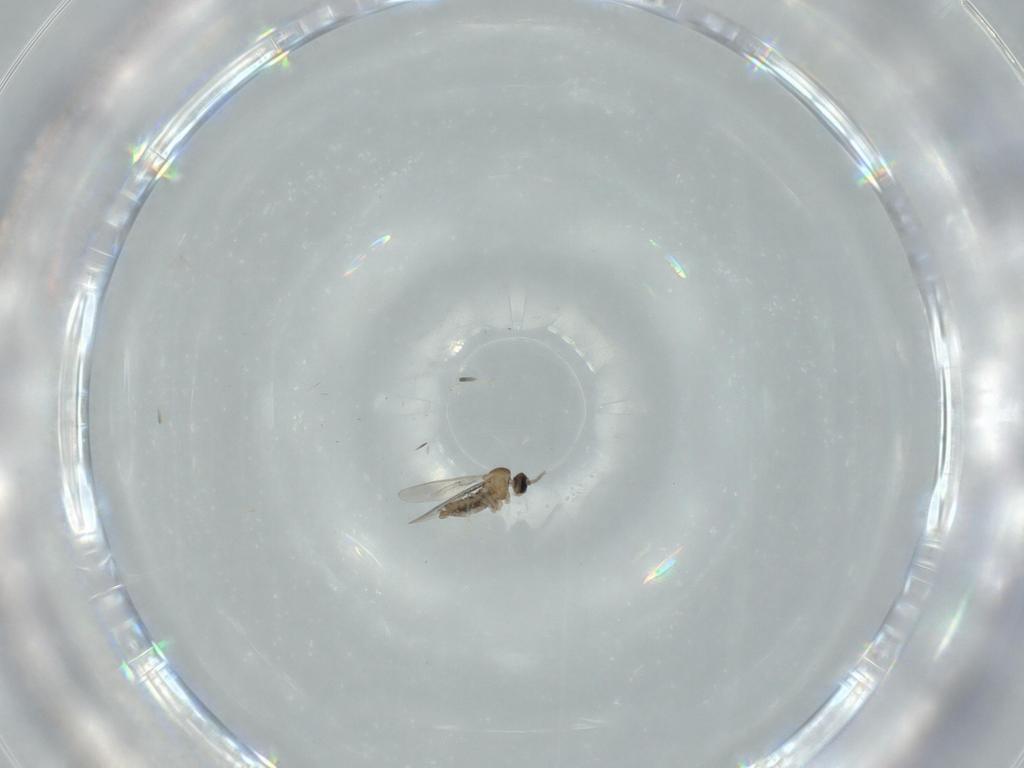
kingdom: Animalia
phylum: Arthropoda
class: Insecta
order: Diptera
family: Cecidomyiidae
